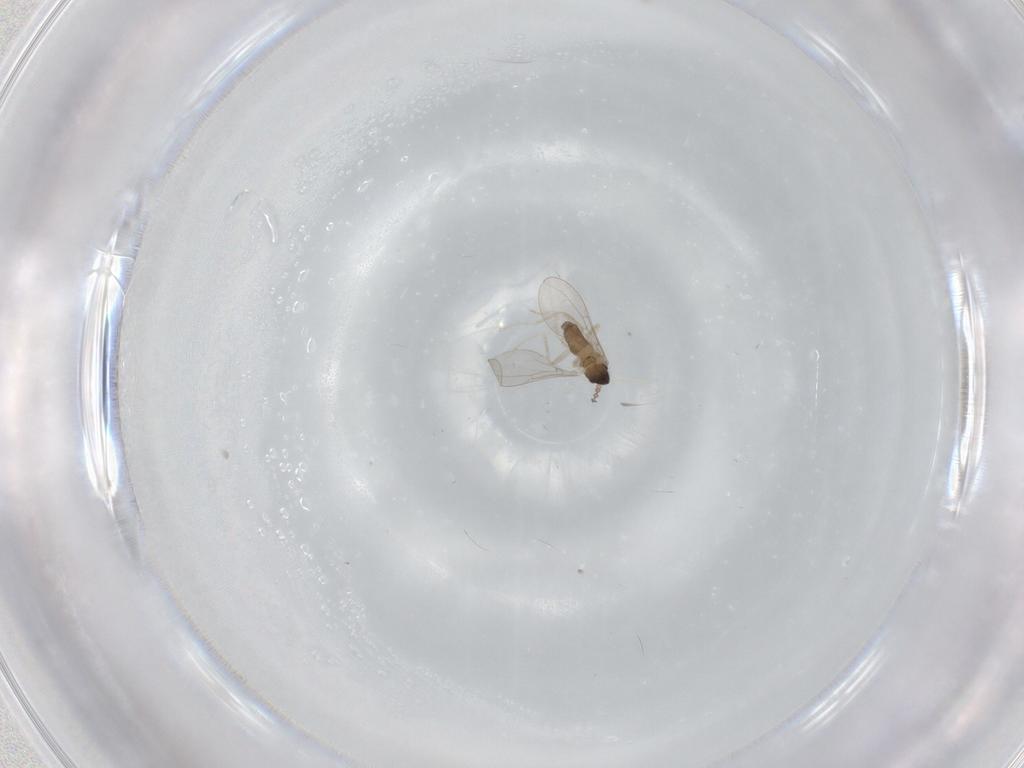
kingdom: Animalia
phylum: Arthropoda
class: Insecta
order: Diptera
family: Cecidomyiidae
